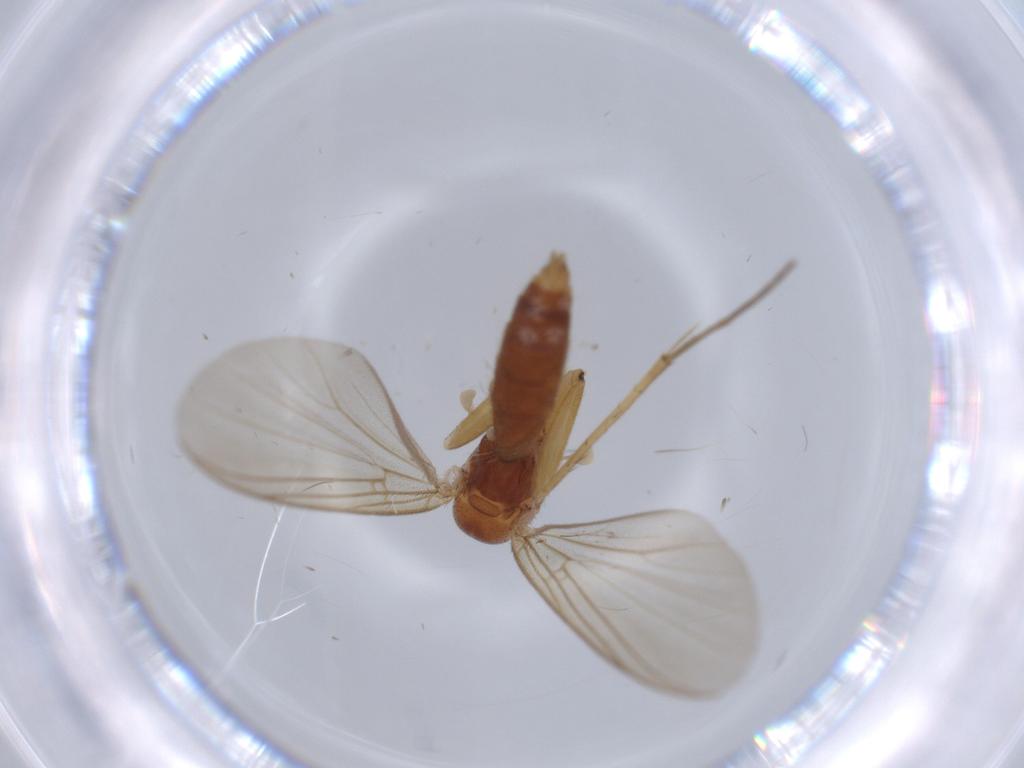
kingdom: Animalia
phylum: Arthropoda
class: Insecta
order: Diptera
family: Mycetophilidae
